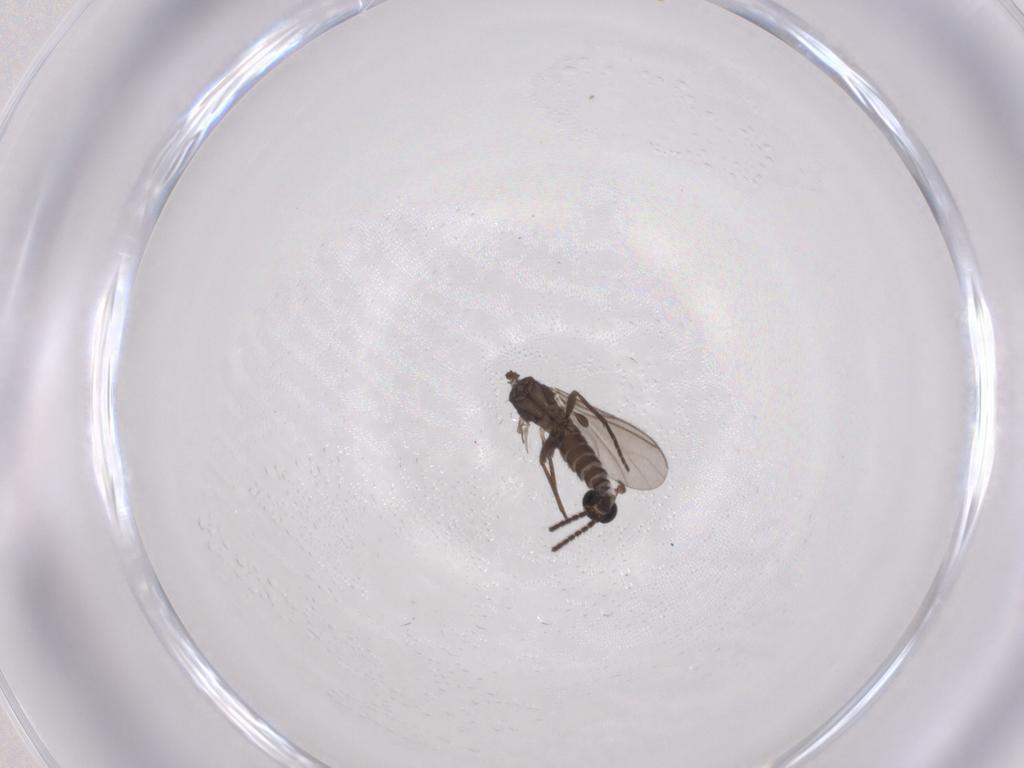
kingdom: Animalia
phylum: Arthropoda
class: Insecta
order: Diptera
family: Sciaridae
